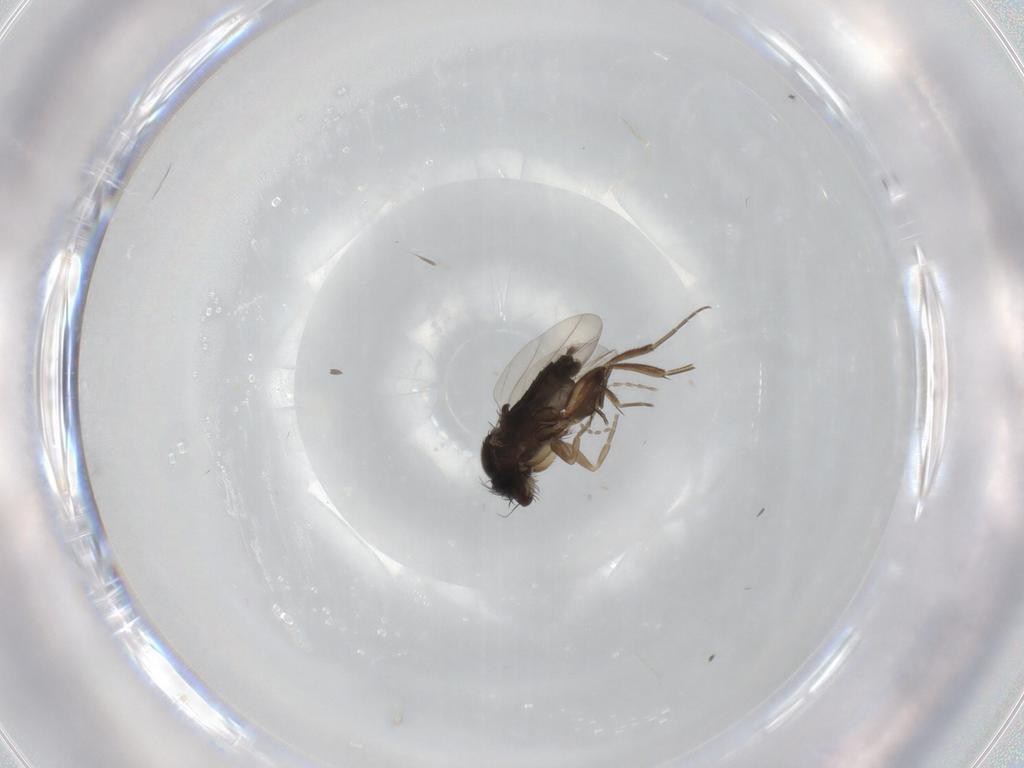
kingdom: Animalia
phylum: Arthropoda
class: Insecta
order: Diptera
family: Cecidomyiidae
